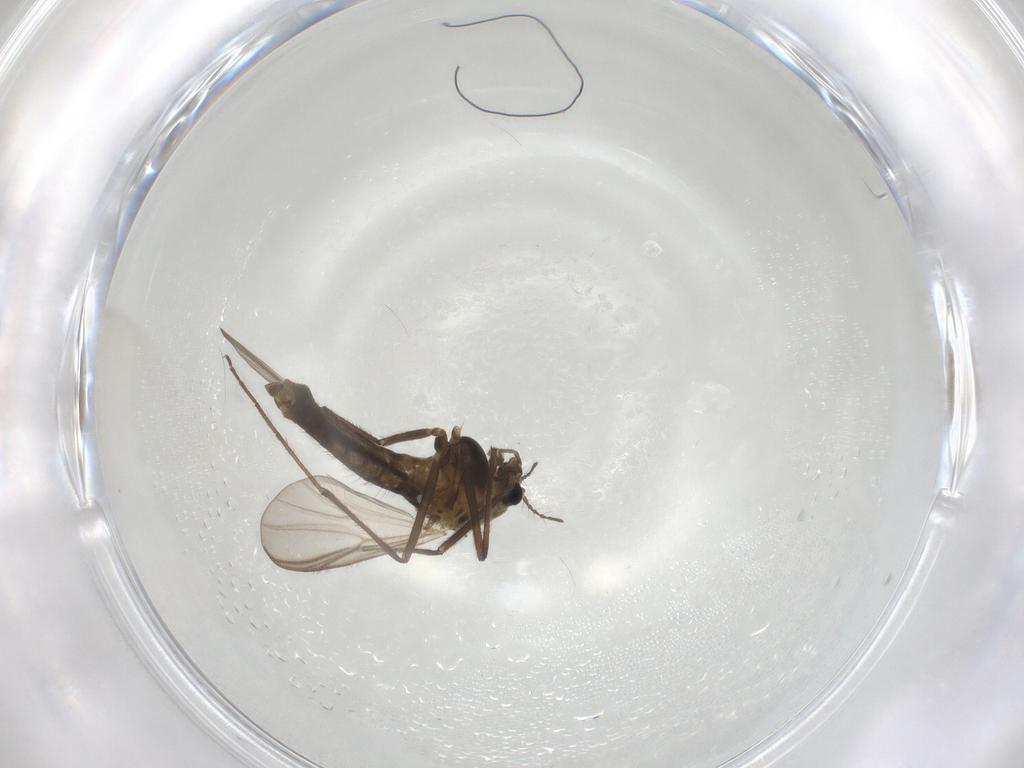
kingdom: Animalia
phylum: Arthropoda
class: Insecta
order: Diptera
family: Chironomidae
